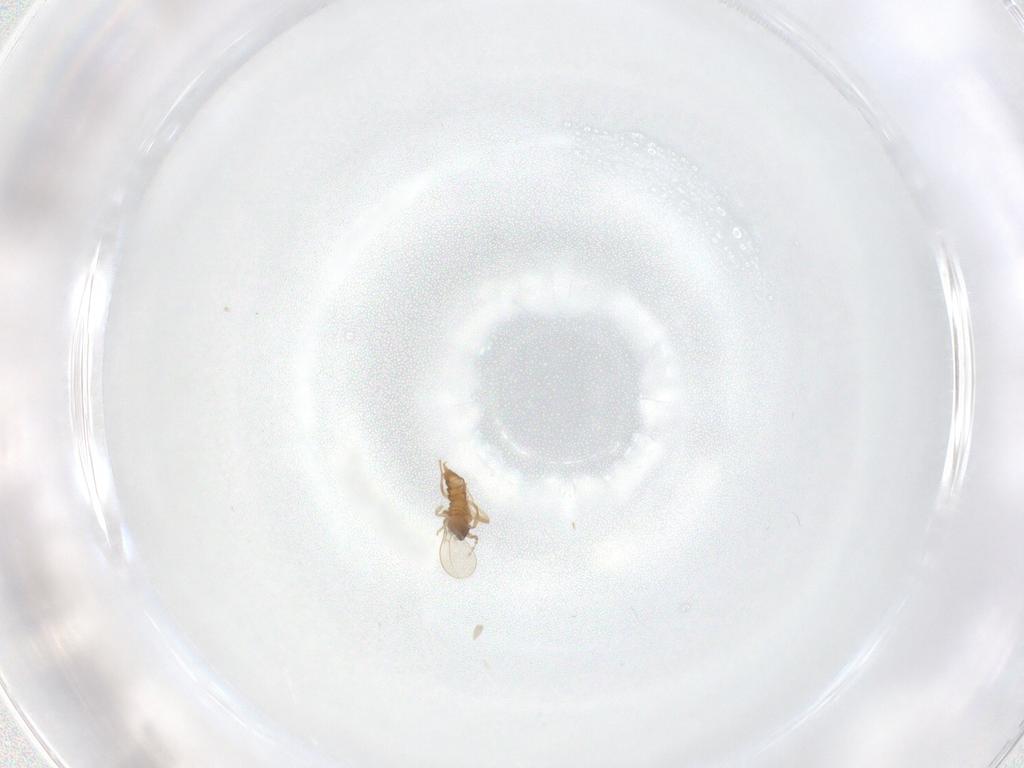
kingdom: Animalia
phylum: Arthropoda
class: Insecta
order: Diptera
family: Cecidomyiidae
